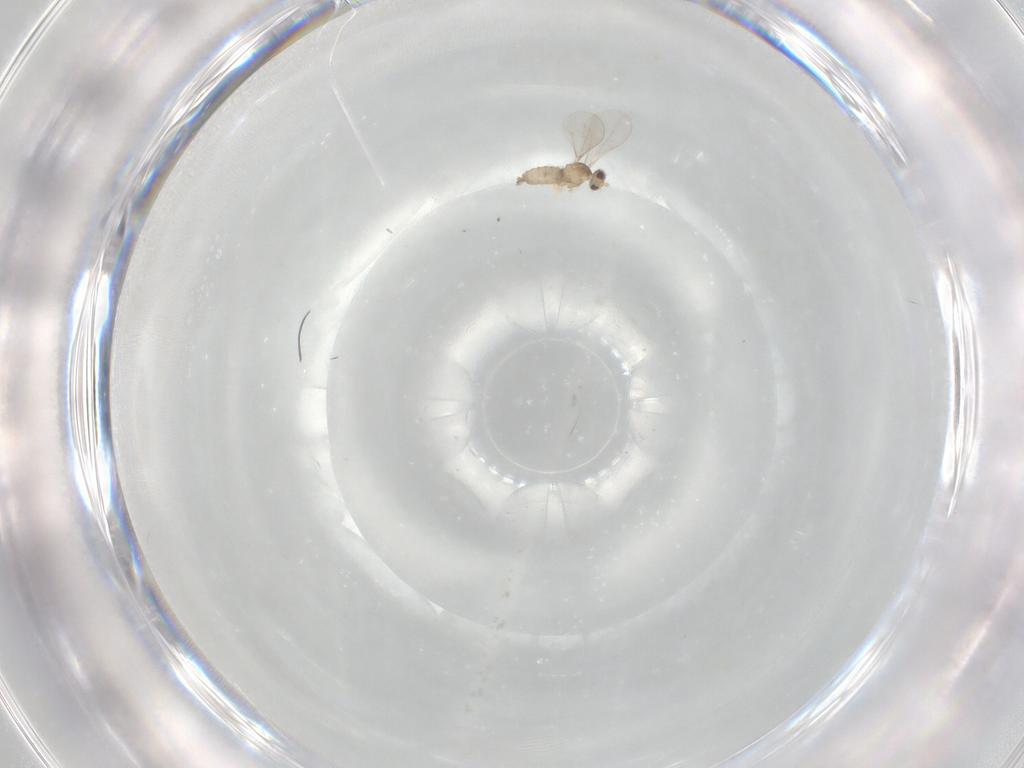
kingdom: Animalia
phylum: Arthropoda
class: Insecta
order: Diptera
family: Cecidomyiidae
